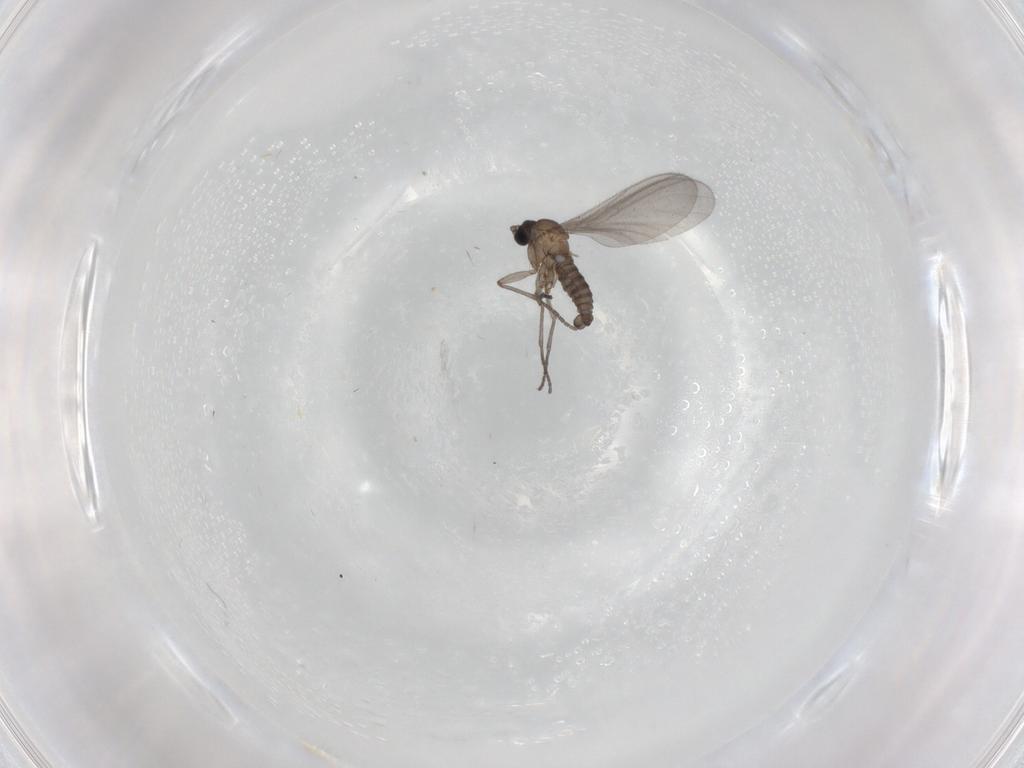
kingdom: Animalia
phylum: Arthropoda
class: Insecta
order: Diptera
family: Sciaridae
